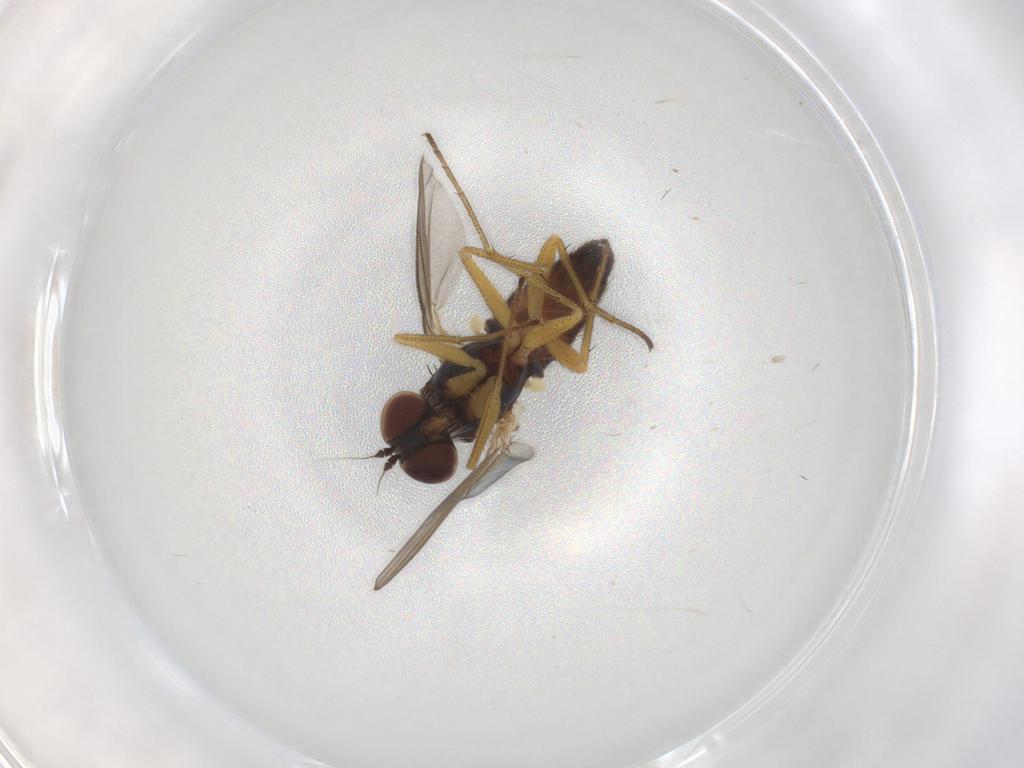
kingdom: Animalia
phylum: Arthropoda
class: Insecta
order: Diptera
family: Dolichopodidae
